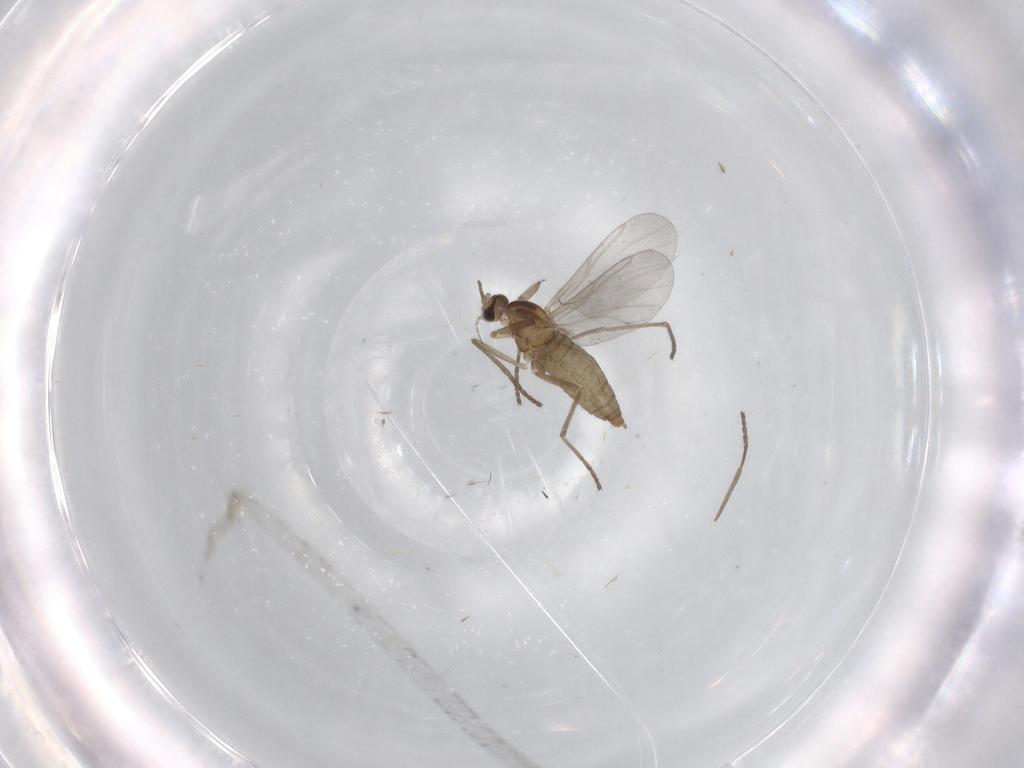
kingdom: Animalia
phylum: Arthropoda
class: Insecta
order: Diptera
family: Cecidomyiidae
